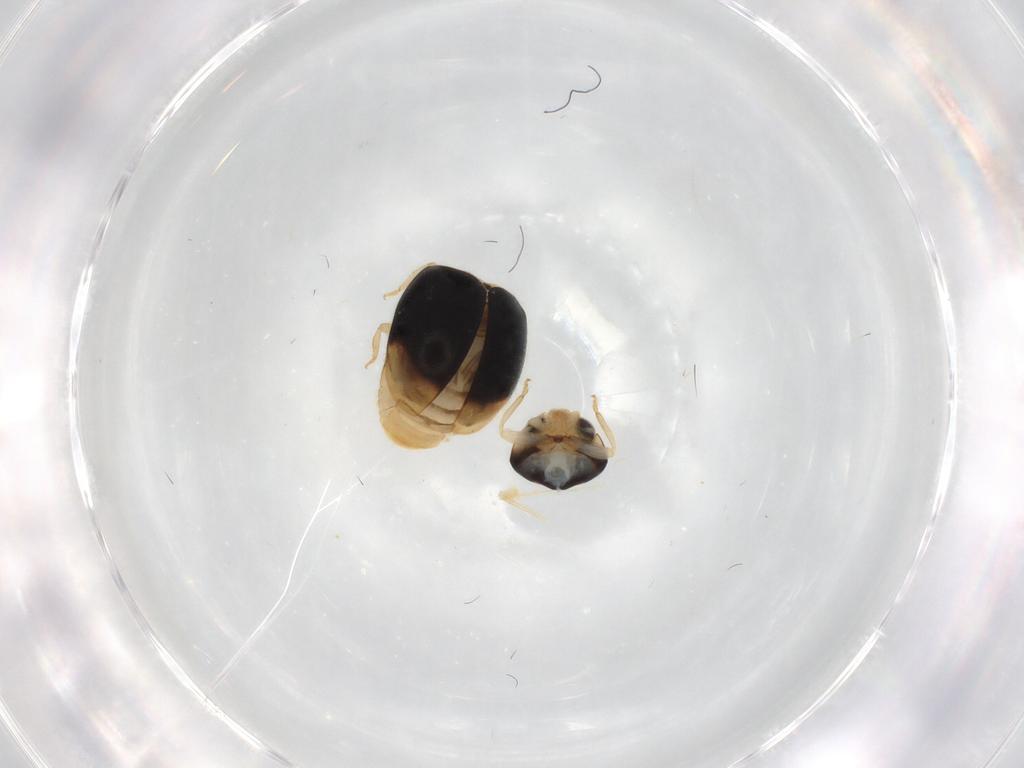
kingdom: Animalia
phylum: Arthropoda
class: Insecta
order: Coleoptera
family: Coccinellidae
